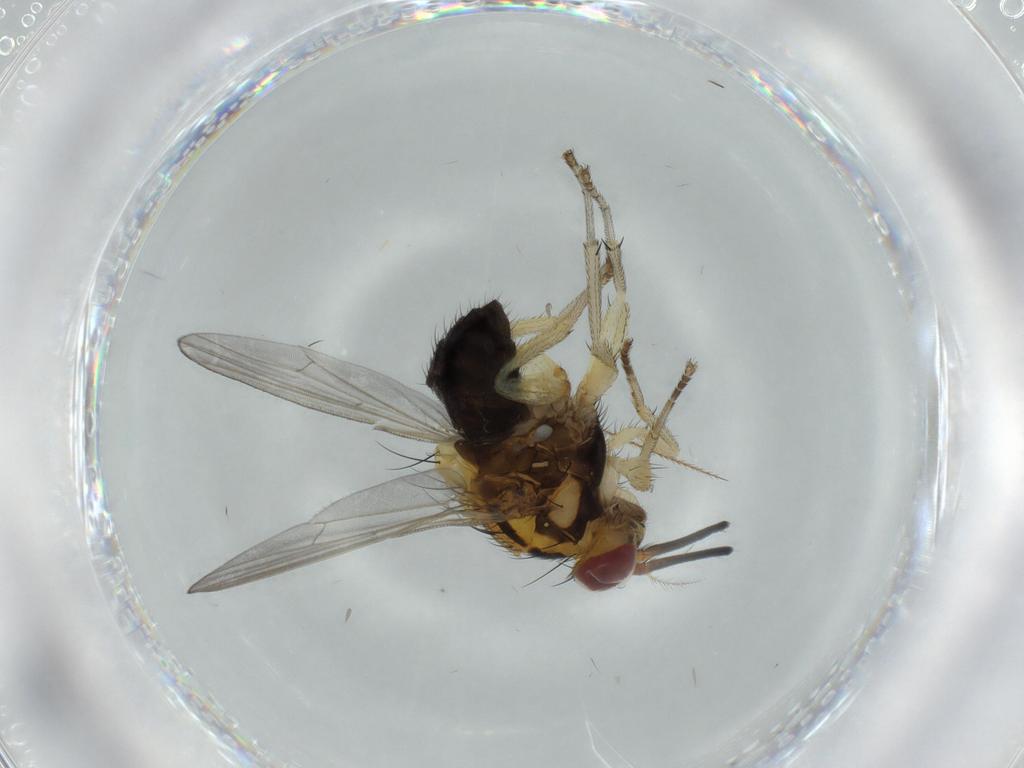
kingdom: Animalia
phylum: Arthropoda
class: Insecta
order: Diptera
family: Lauxaniidae
